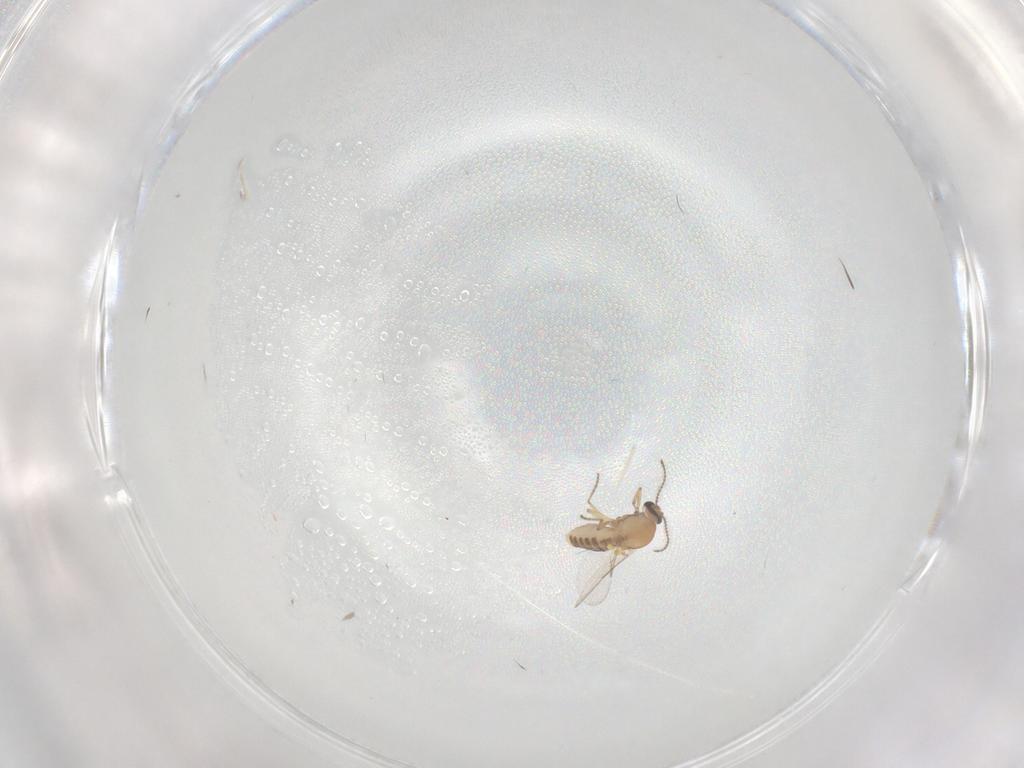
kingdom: Animalia
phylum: Arthropoda
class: Insecta
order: Diptera
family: Ceratopogonidae
